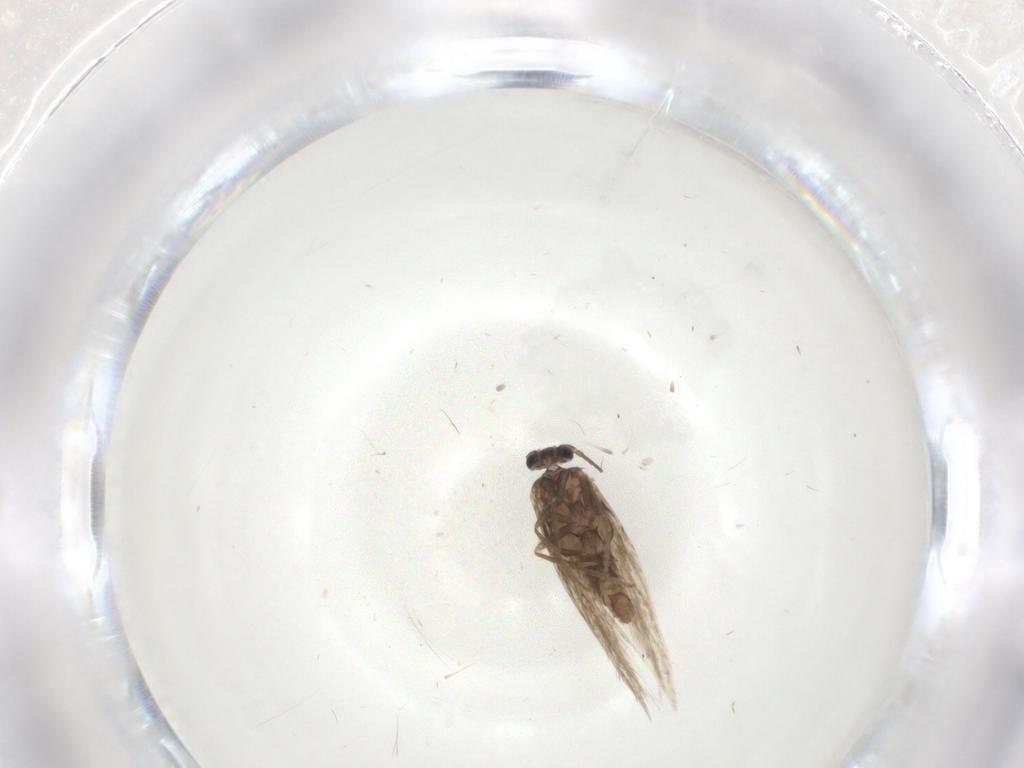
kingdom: Animalia
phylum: Arthropoda
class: Insecta
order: Lepidoptera
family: Nepticulidae
